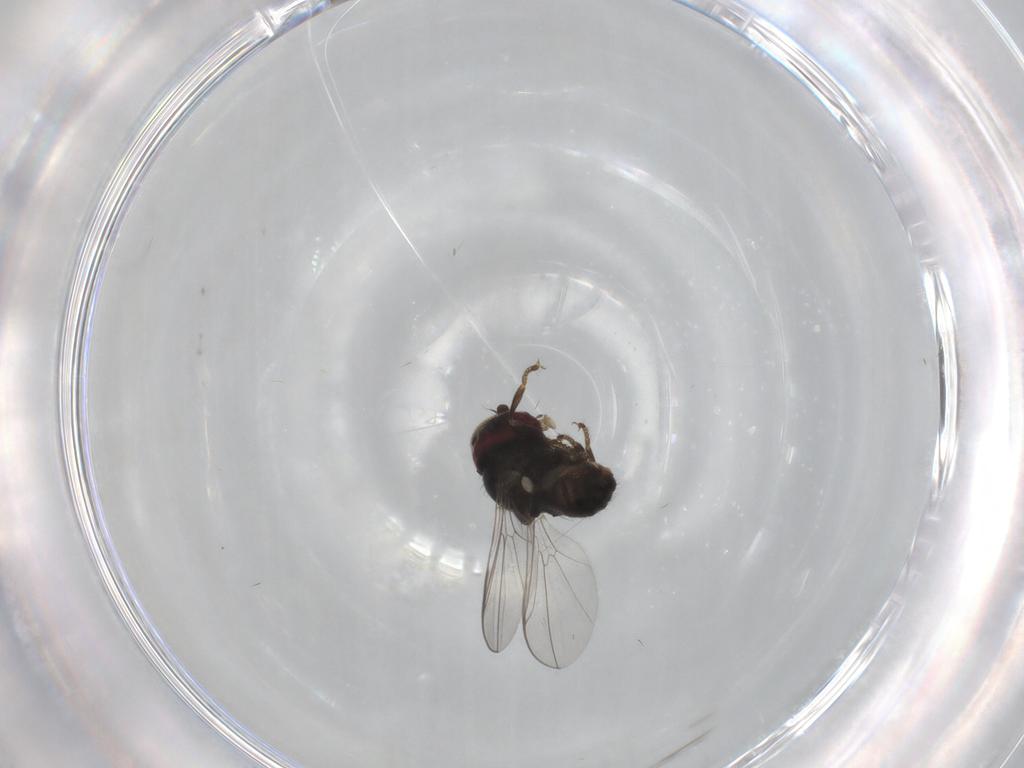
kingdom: Animalia
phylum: Arthropoda
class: Insecta
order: Diptera
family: Pipunculidae
